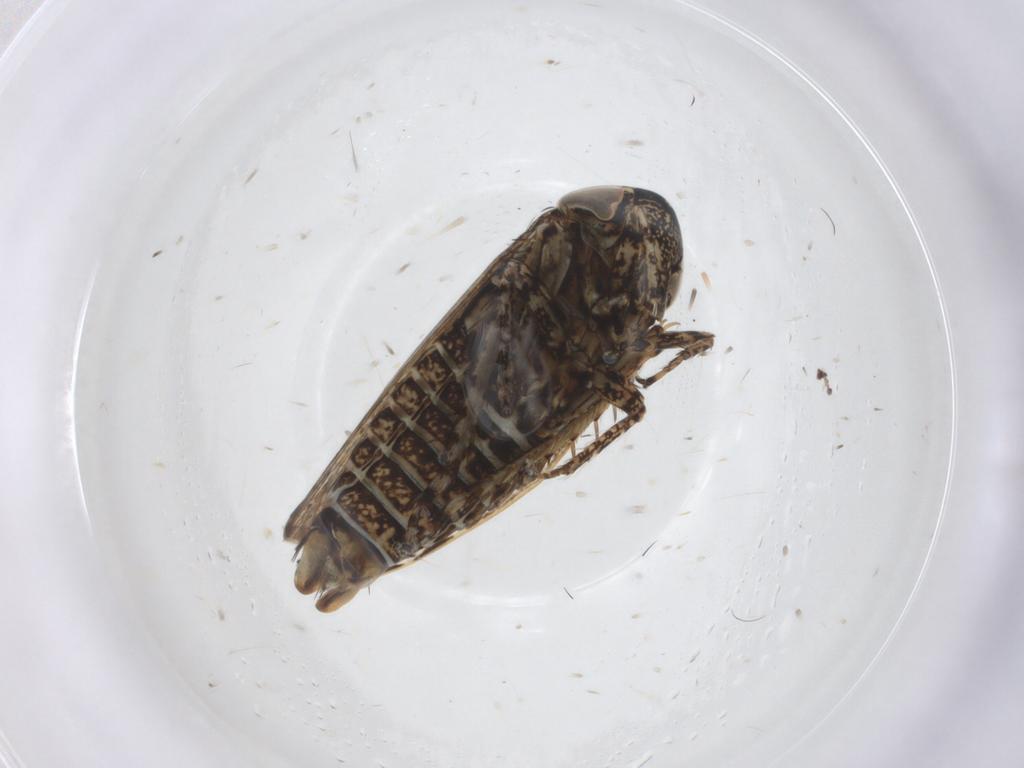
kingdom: Animalia
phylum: Arthropoda
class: Insecta
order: Hemiptera
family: Cicadellidae
